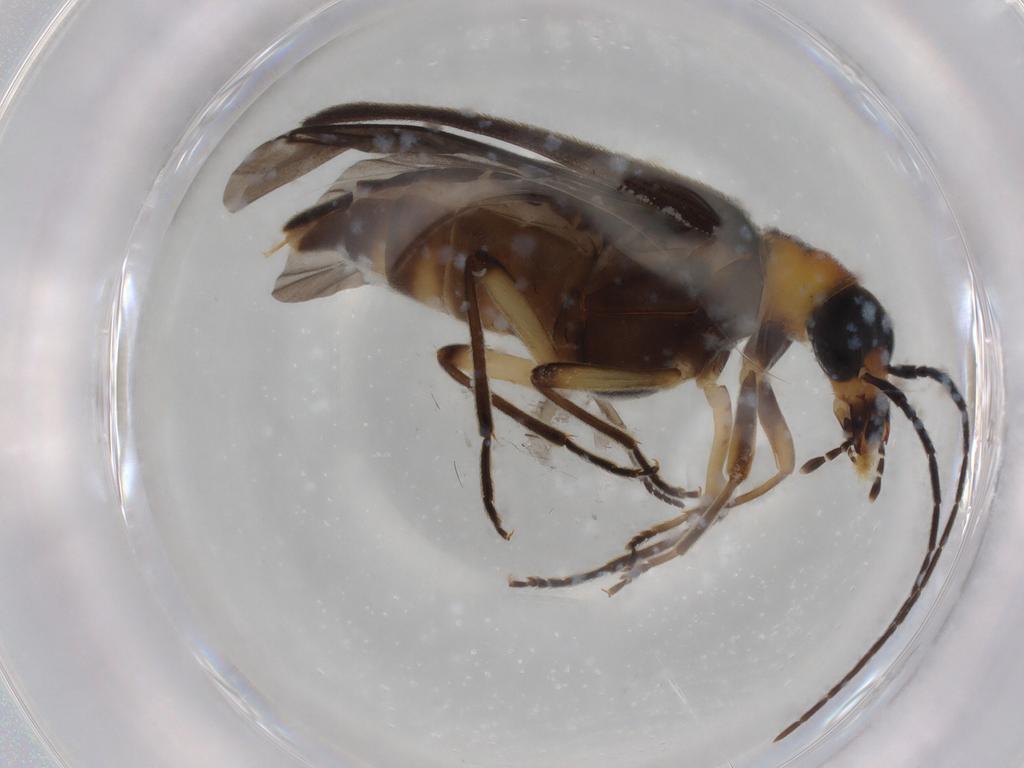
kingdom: Animalia
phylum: Arthropoda
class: Insecta
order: Coleoptera
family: Oedemeridae
